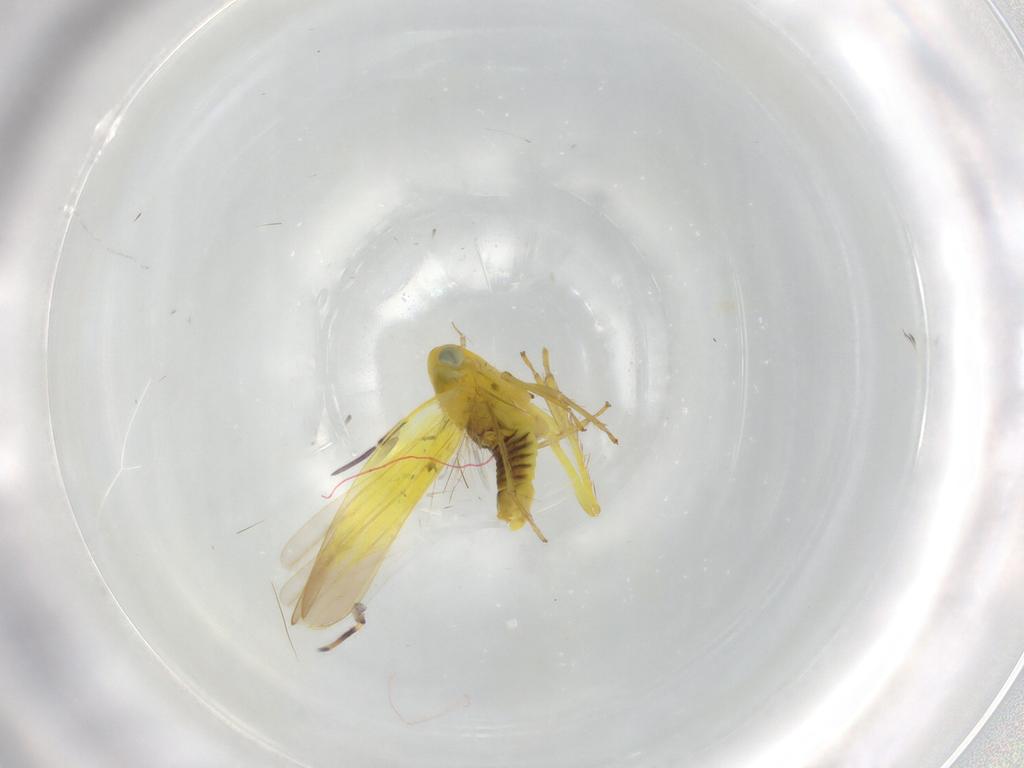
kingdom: Animalia
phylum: Arthropoda
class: Insecta
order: Hemiptera
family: Cicadellidae
